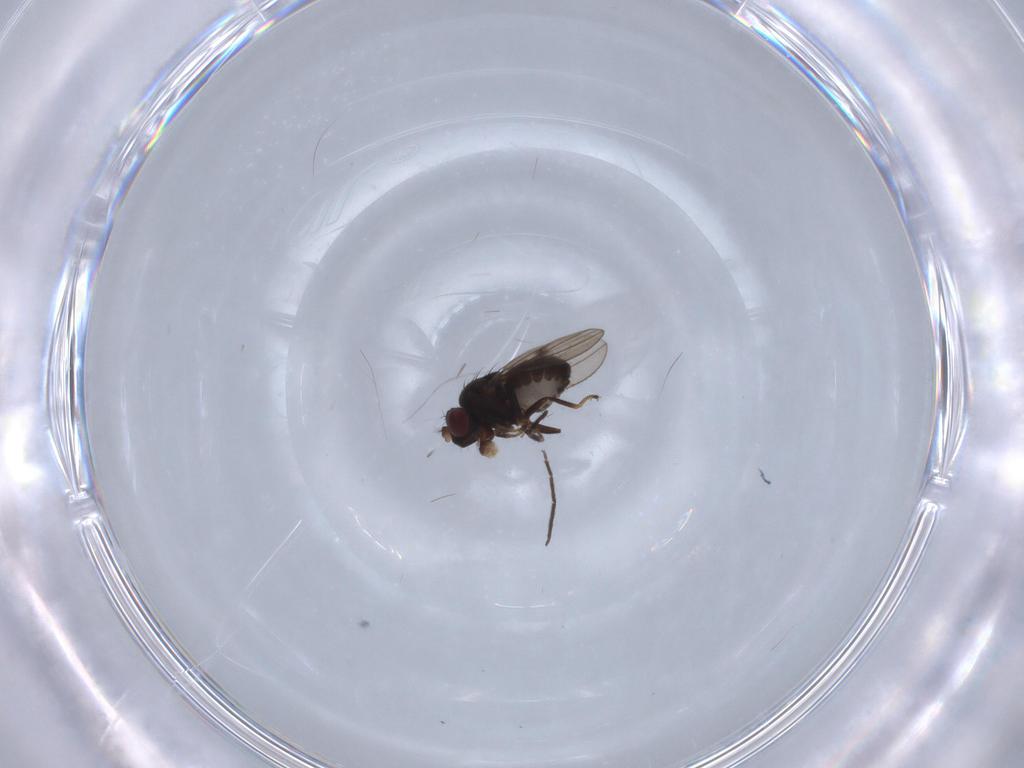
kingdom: Animalia
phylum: Arthropoda
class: Insecta
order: Diptera
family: Ephydridae
